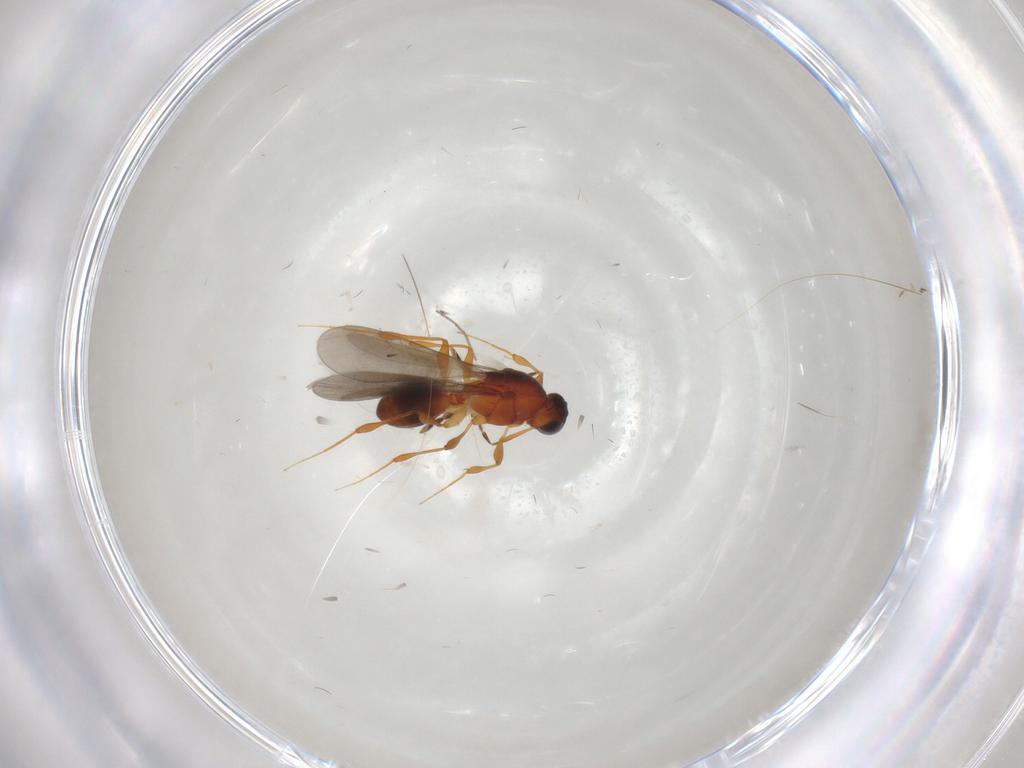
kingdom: Animalia
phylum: Arthropoda
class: Insecta
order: Hymenoptera
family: Platygastridae
